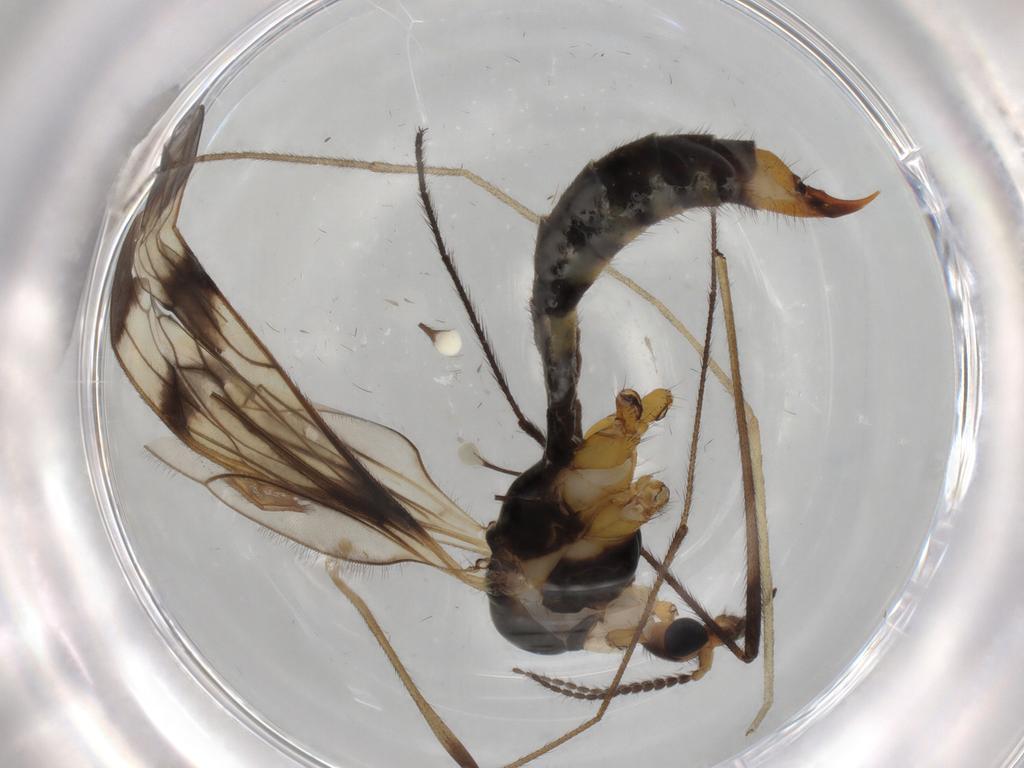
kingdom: Animalia
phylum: Arthropoda
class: Insecta
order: Diptera
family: Limoniidae
